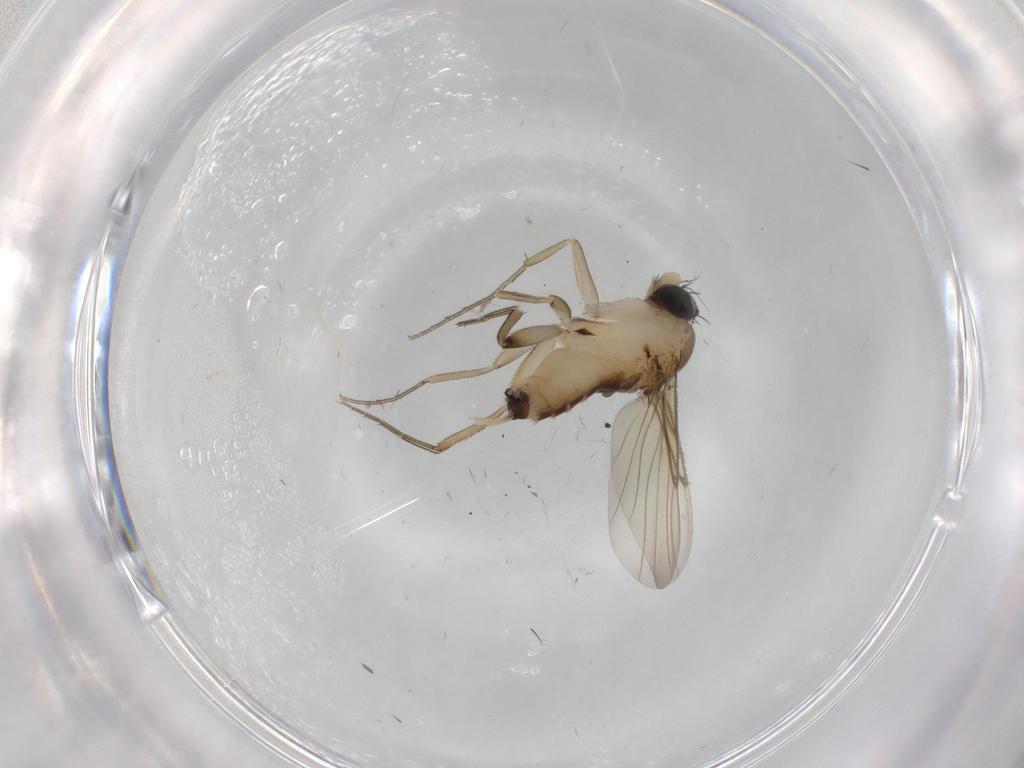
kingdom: Animalia
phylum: Arthropoda
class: Insecta
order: Diptera
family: Phoridae
